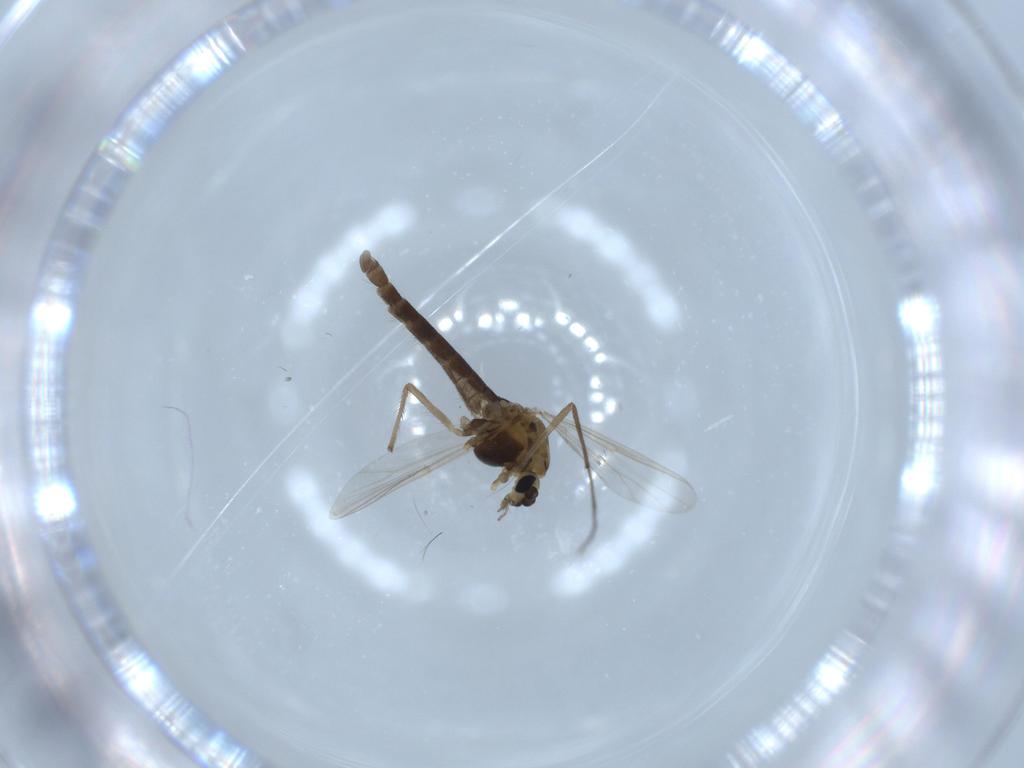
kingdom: Animalia
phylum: Arthropoda
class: Insecta
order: Diptera
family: Chironomidae
